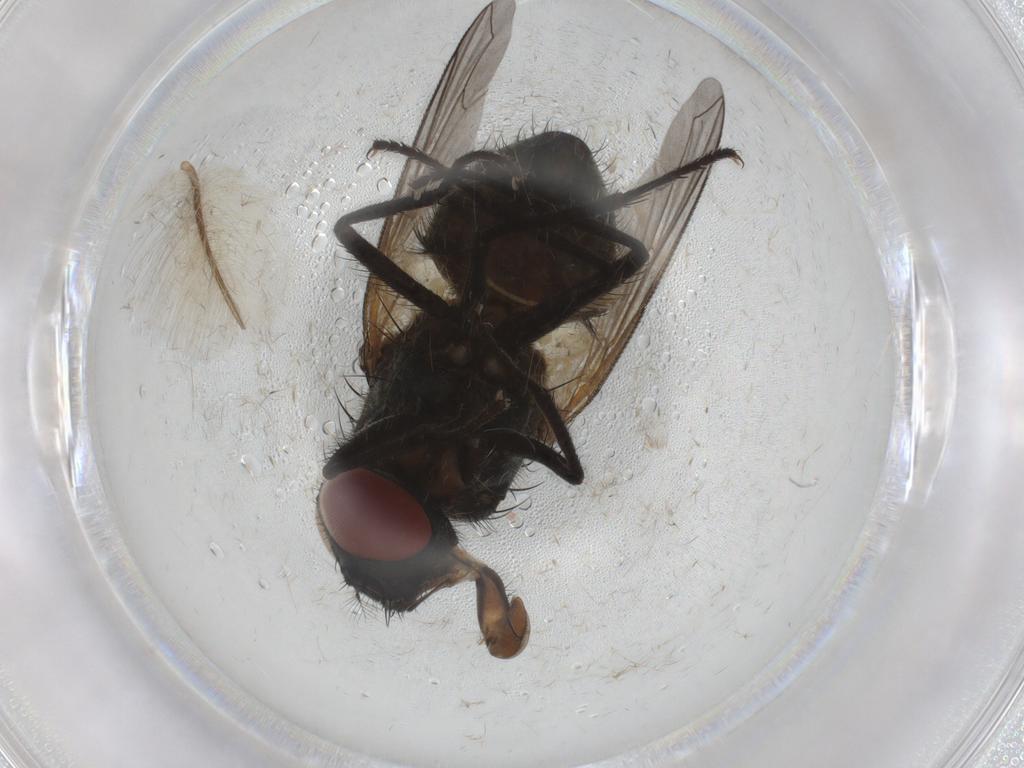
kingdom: Animalia
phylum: Arthropoda
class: Insecta
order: Diptera
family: Muscidae
